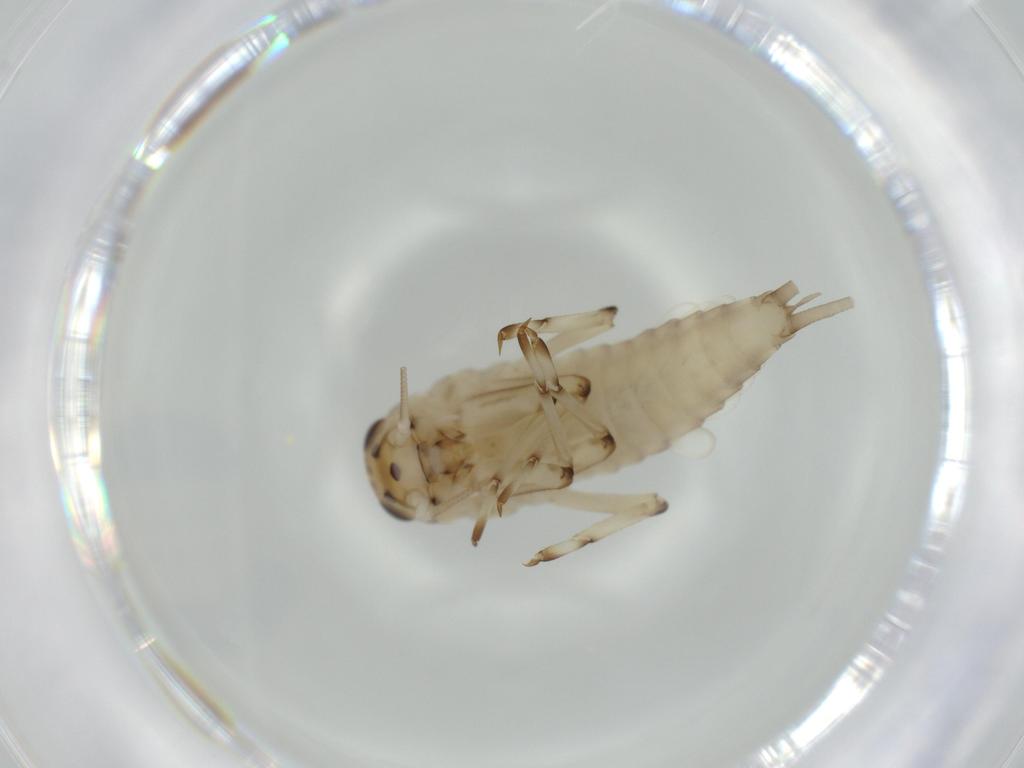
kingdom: Animalia
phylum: Arthropoda
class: Insecta
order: Ephemeroptera
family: Baetidae
